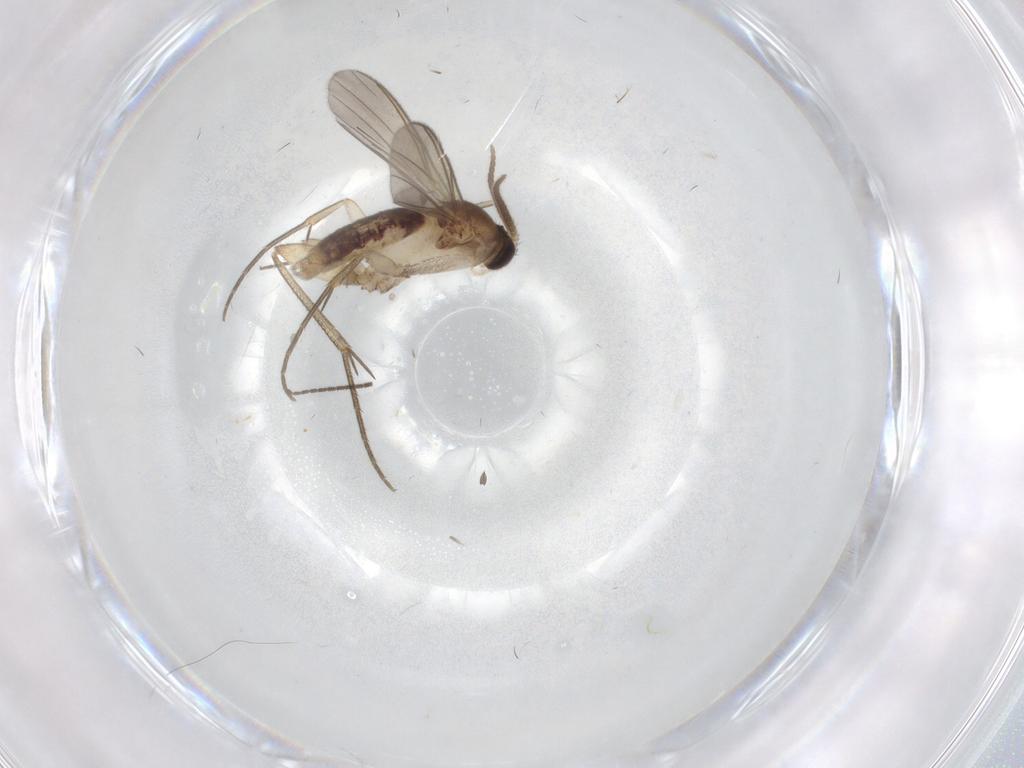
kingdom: Animalia
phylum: Arthropoda
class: Insecta
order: Diptera
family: Mycetophilidae
